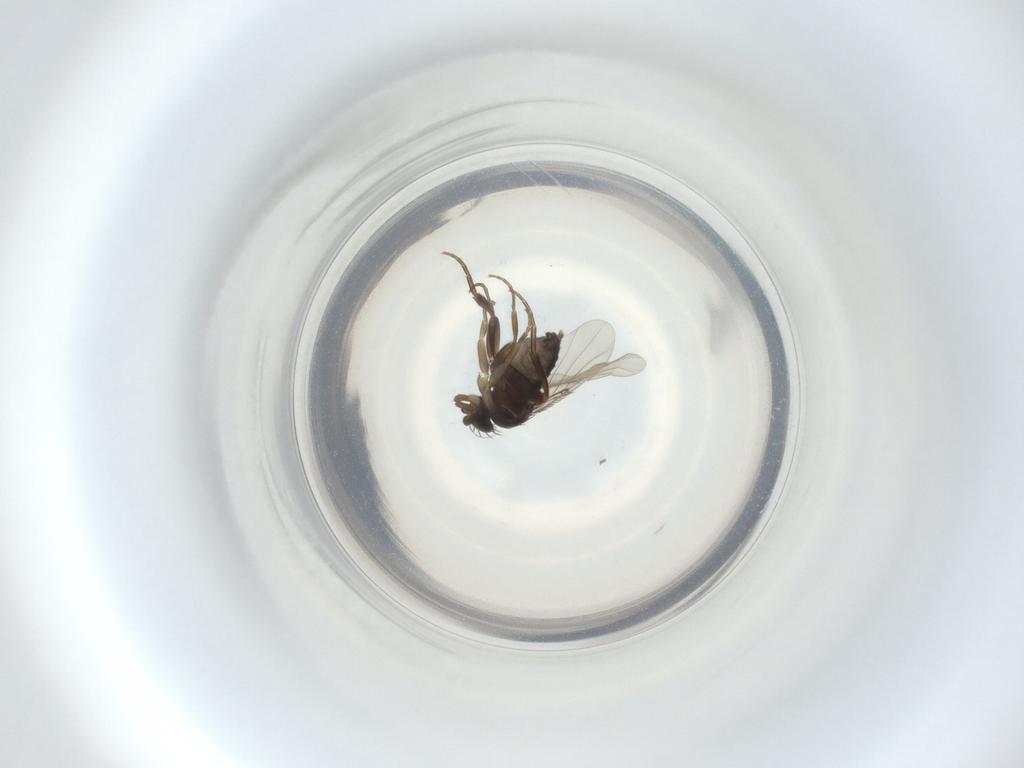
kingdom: Animalia
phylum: Arthropoda
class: Insecta
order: Diptera
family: Phoridae
